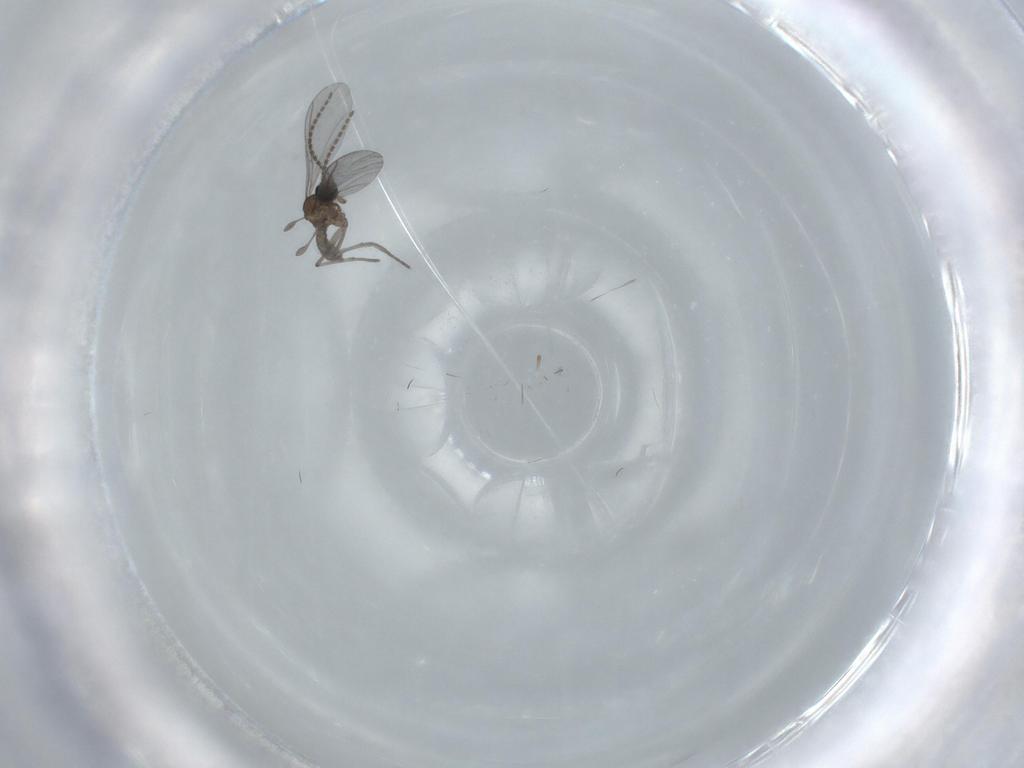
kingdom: Animalia
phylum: Arthropoda
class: Insecta
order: Diptera
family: Sciaridae
